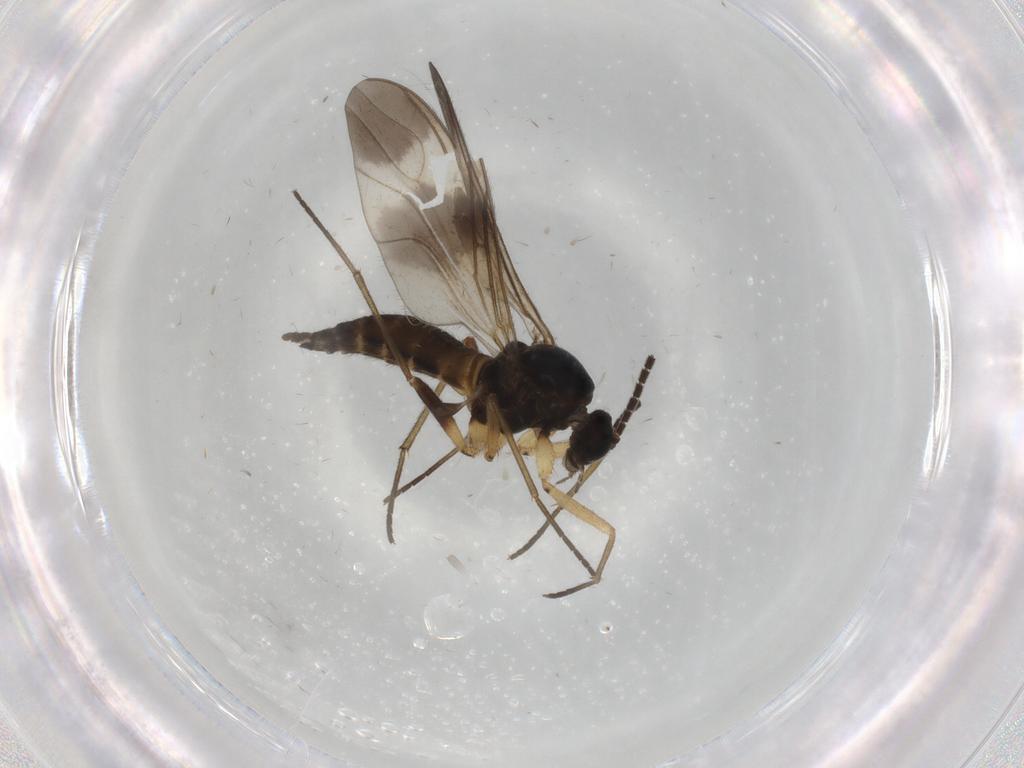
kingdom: Animalia
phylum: Arthropoda
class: Insecta
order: Diptera
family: Sciaridae
